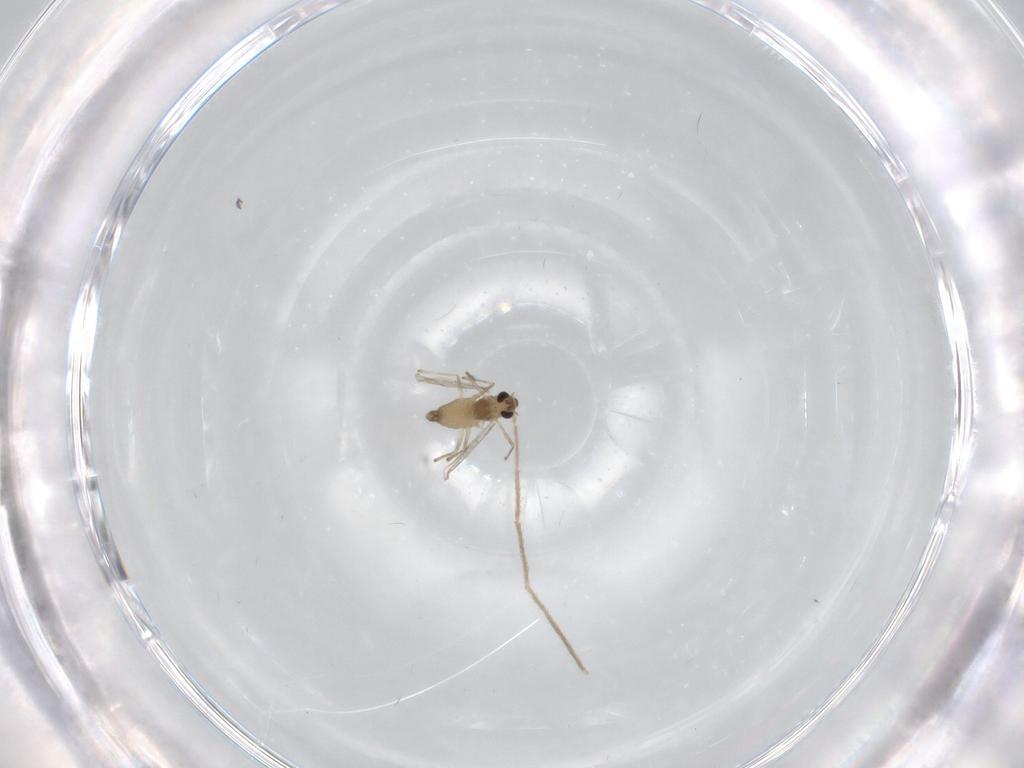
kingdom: Animalia
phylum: Arthropoda
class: Insecta
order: Diptera
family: Chironomidae
